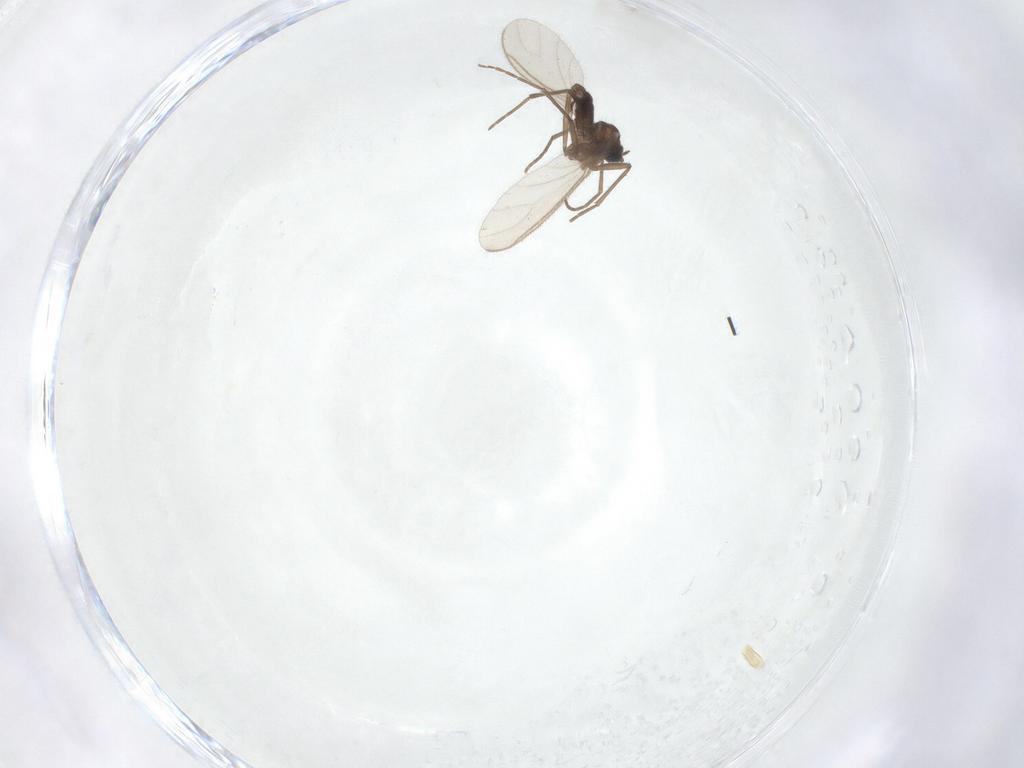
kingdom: Animalia
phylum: Arthropoda
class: Insecta
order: Diptera
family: Sciaridae
